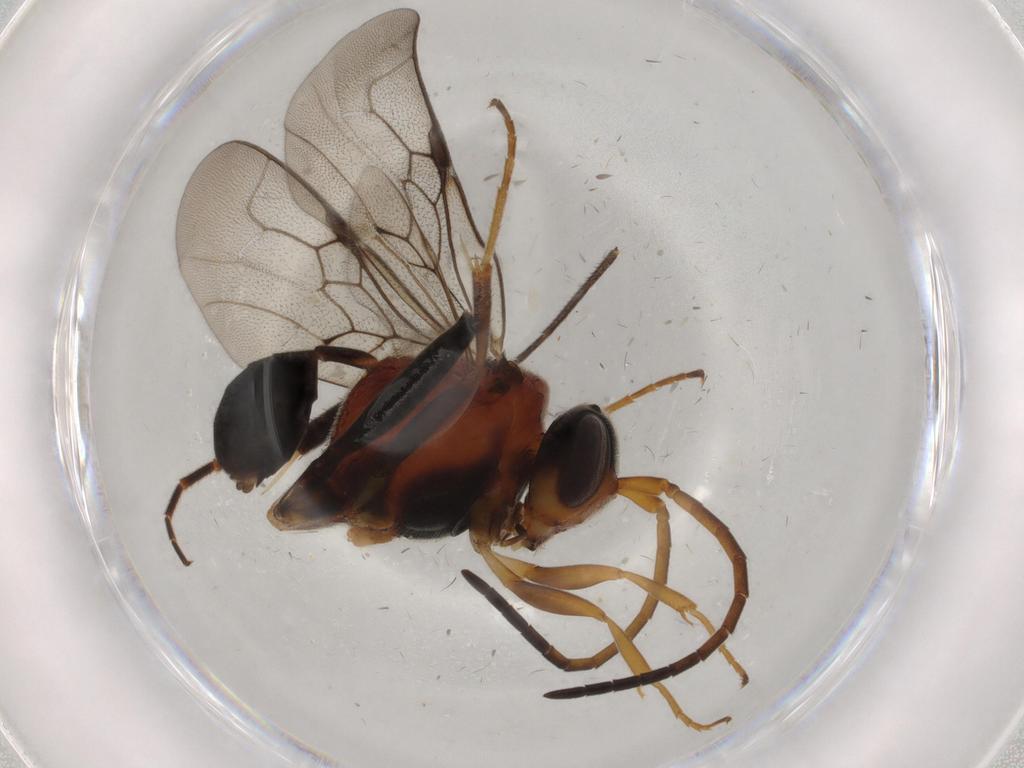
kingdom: Animalia
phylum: Arthropoda
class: Insecta
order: Hymenoptera
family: Evaniidae
